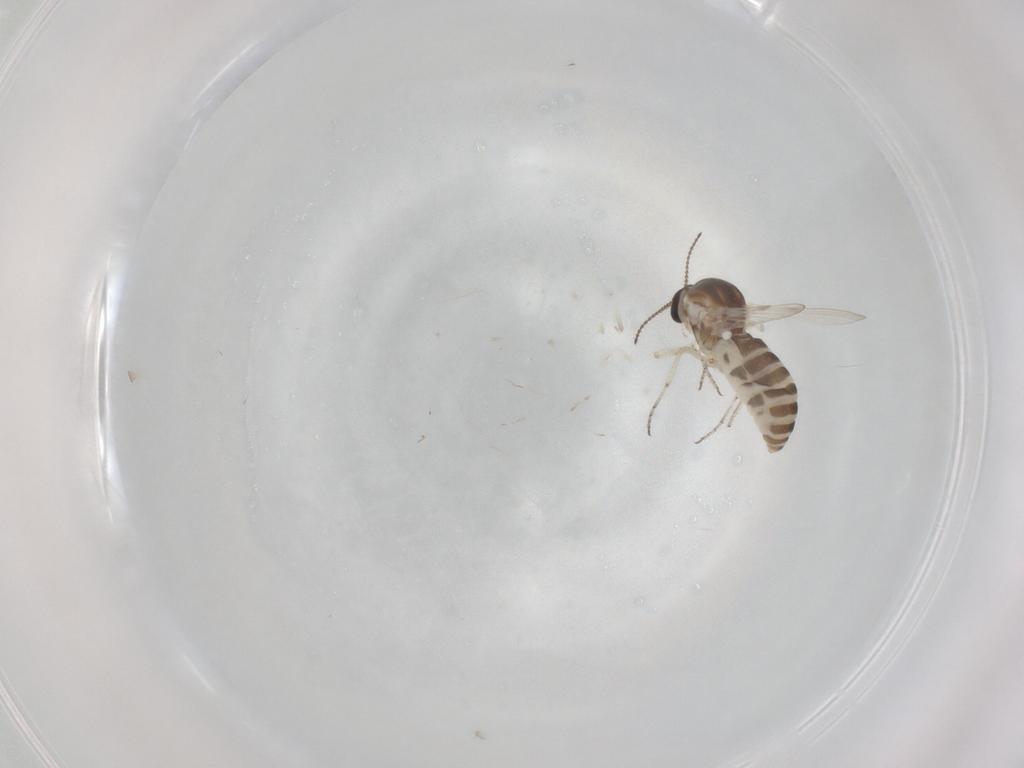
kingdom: Animalia
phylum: Arthropoda
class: Insecta
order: Diptera
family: Ceratopogonidae
